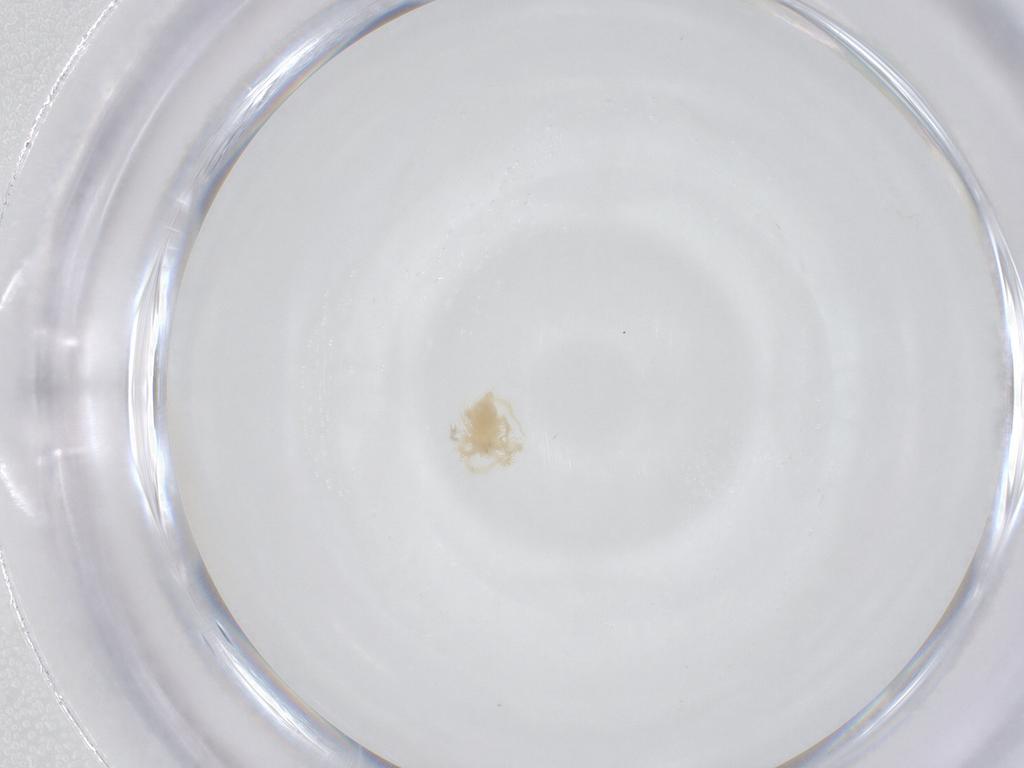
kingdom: Animalia
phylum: Arthropoda
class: Arachnida
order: Trombidiformes
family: Anystidae
